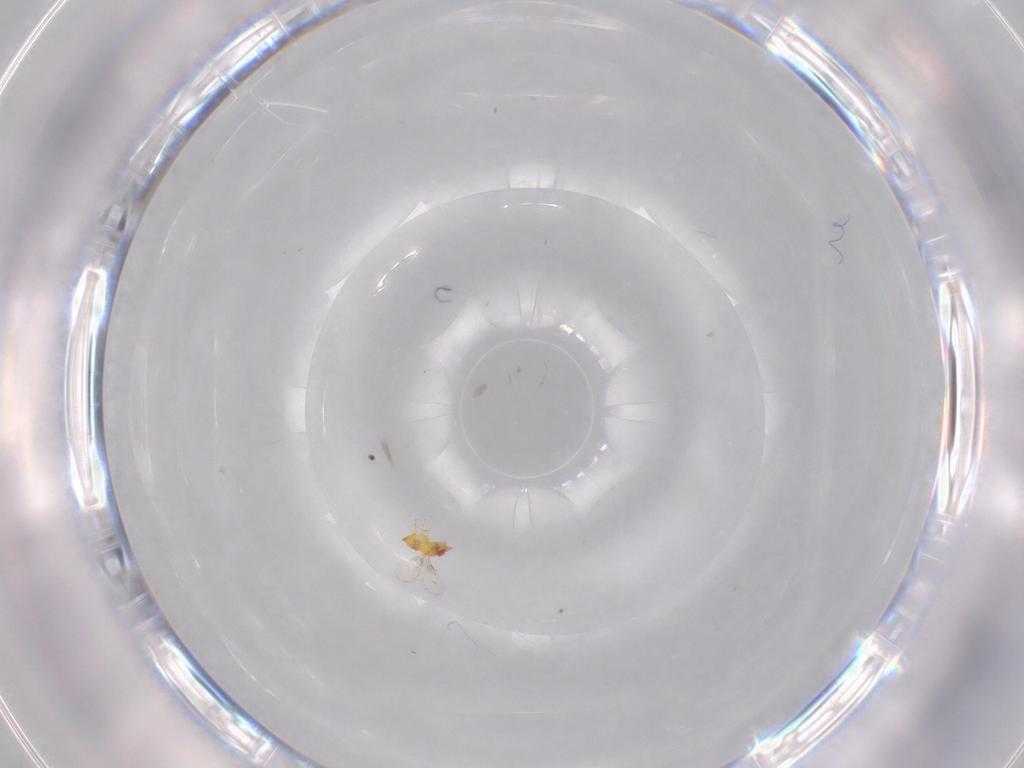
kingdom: Animalia
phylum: Arthropoda
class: Insecta
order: Hymenoptera
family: Trichogrammatidae
